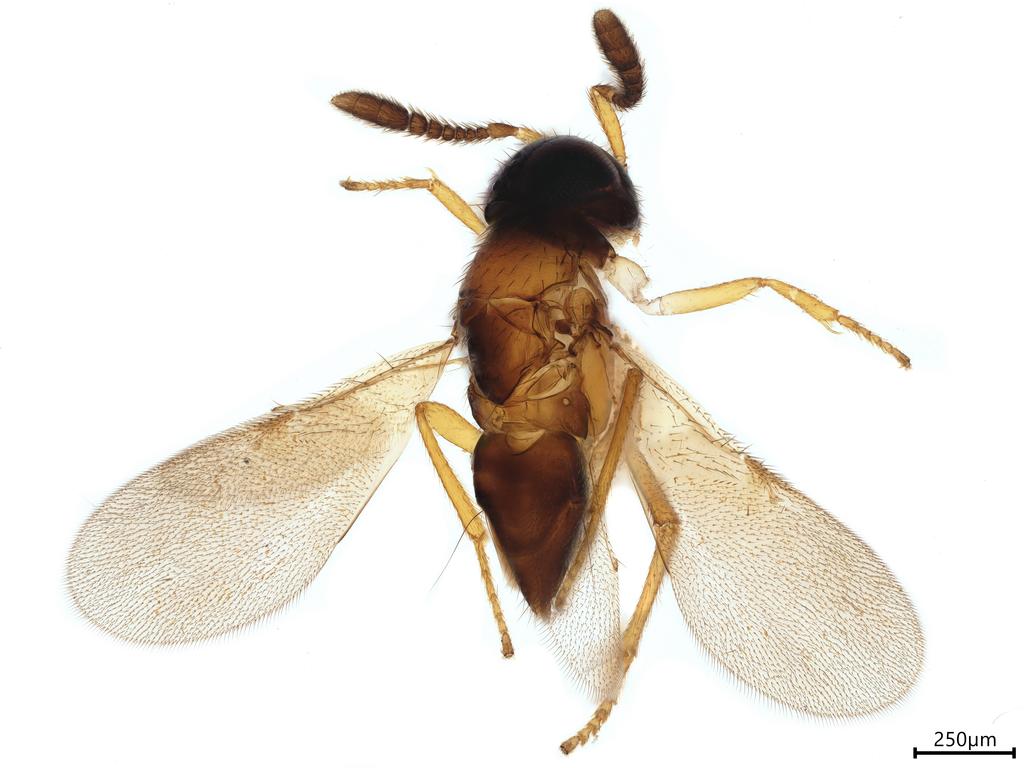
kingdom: Animalia
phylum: Arthropoda
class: Insecta
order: Hymenoptera
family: Encyrtidae
